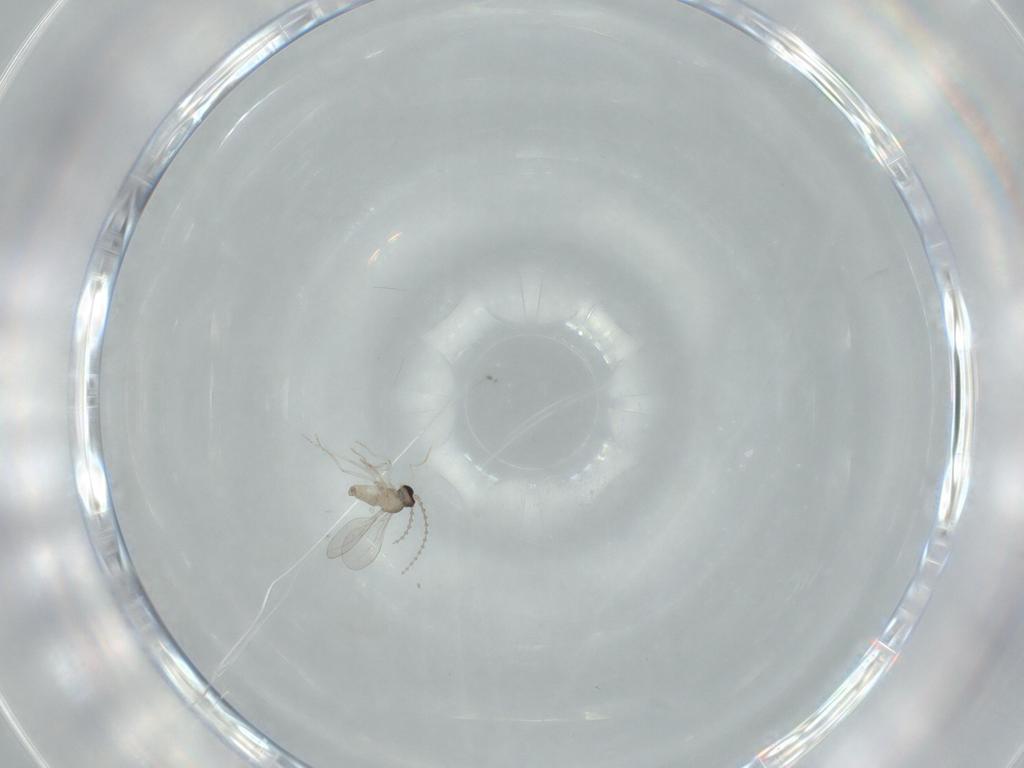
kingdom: Animalia
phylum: Arthropoda
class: Insecta
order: Diptera
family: Cecidomyiidae
